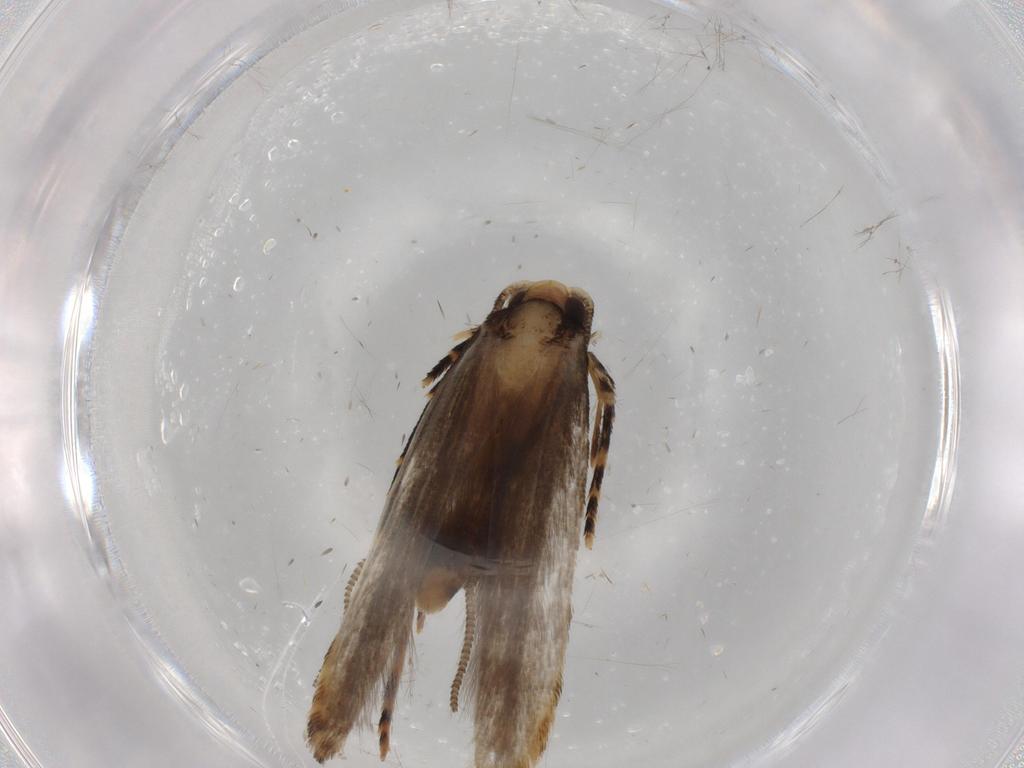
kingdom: Animalia
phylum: Arthropoda
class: Insecta
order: Lepidoptera
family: Tineidae
